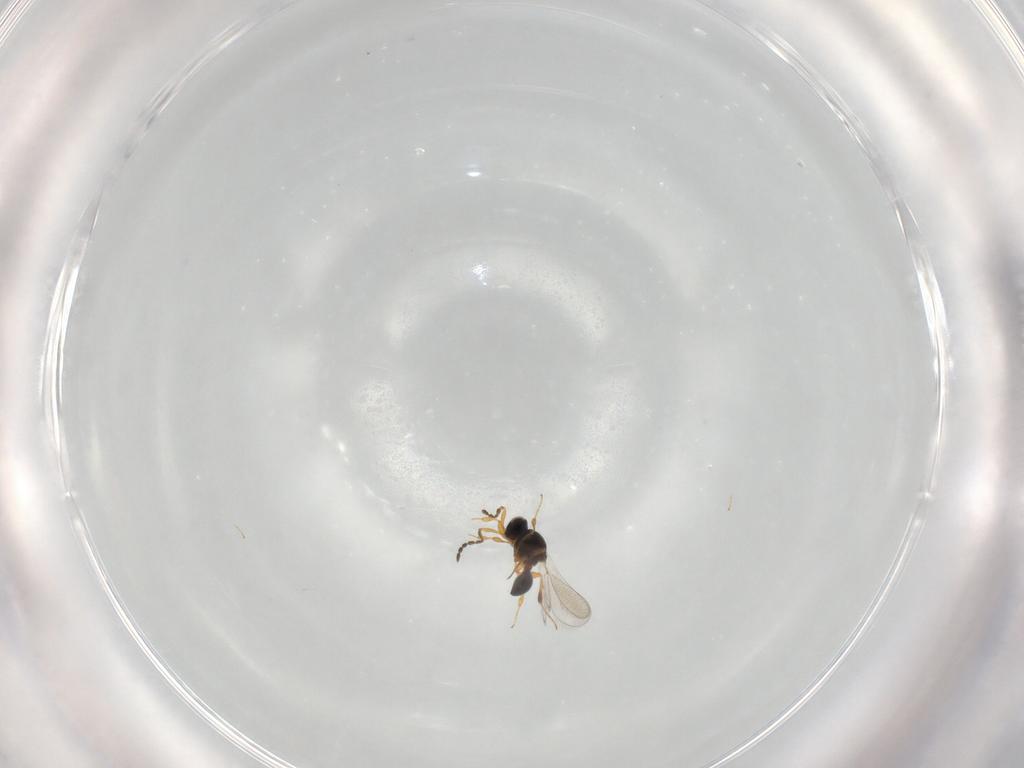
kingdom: Animalia
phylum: Arthropoda
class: Insecta
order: Hymenoptera
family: Platygastridae
